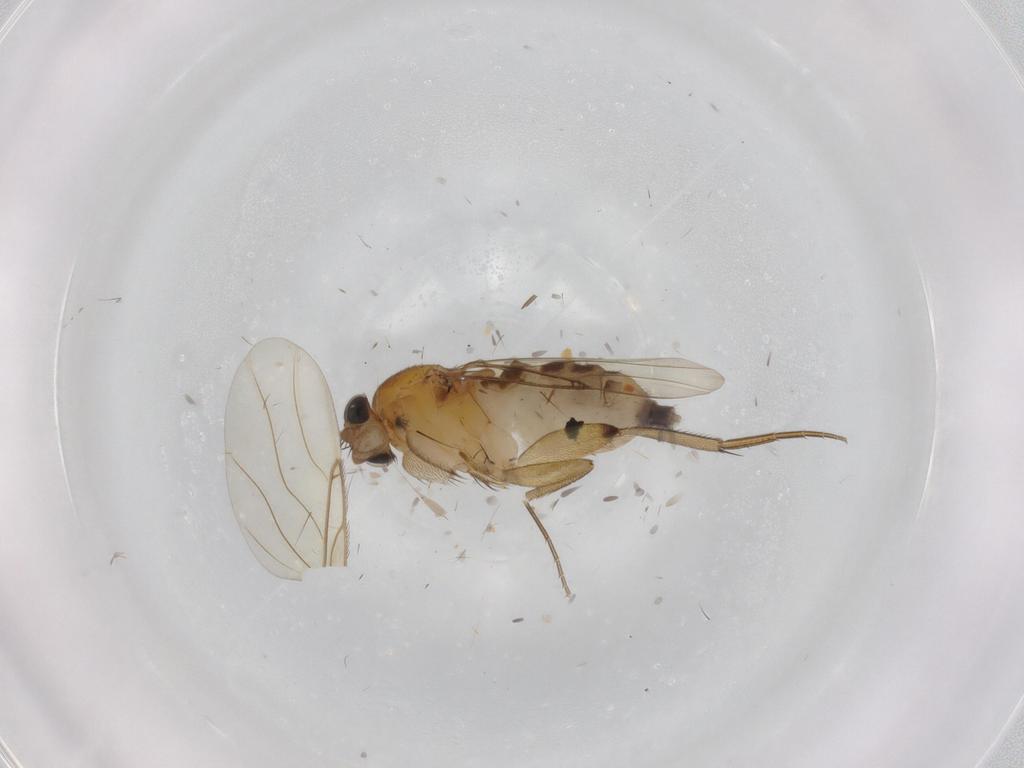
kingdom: Animalia
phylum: Arthropoda
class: Insecta
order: Diptera
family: Phoridae
